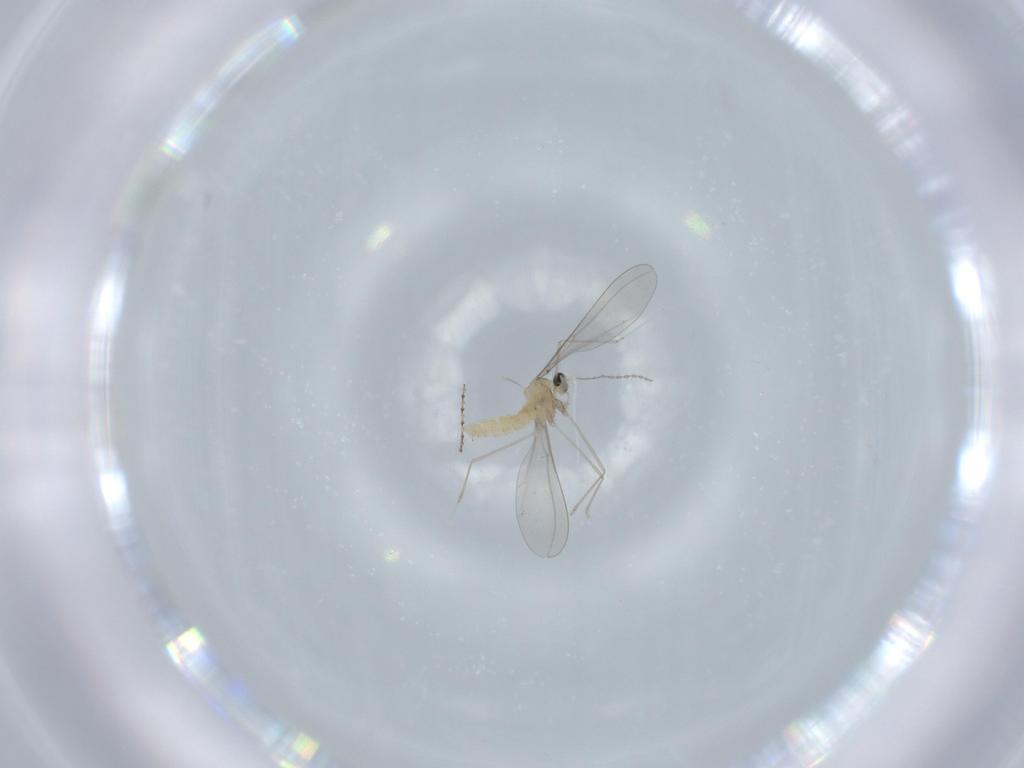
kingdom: Animalia
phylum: Arthropoda
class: Insecta
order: Diptera
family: Cecidomyiidae
